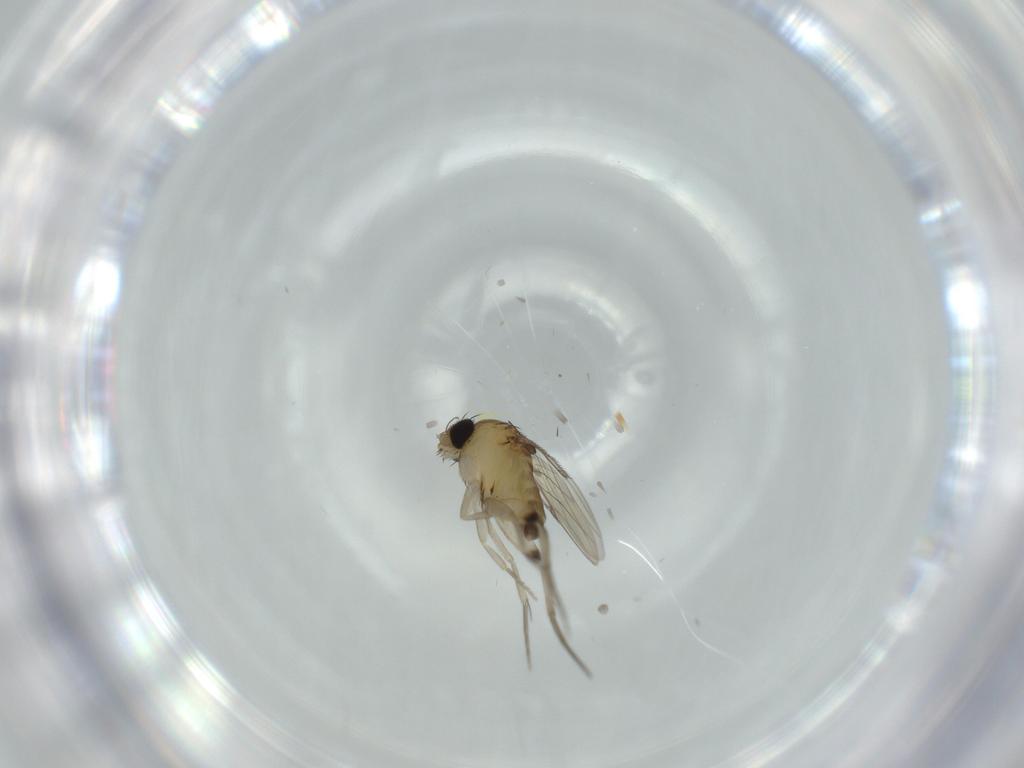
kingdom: Animalia
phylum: Arthropoda
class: Insecta
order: Diptera
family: Phoridae
